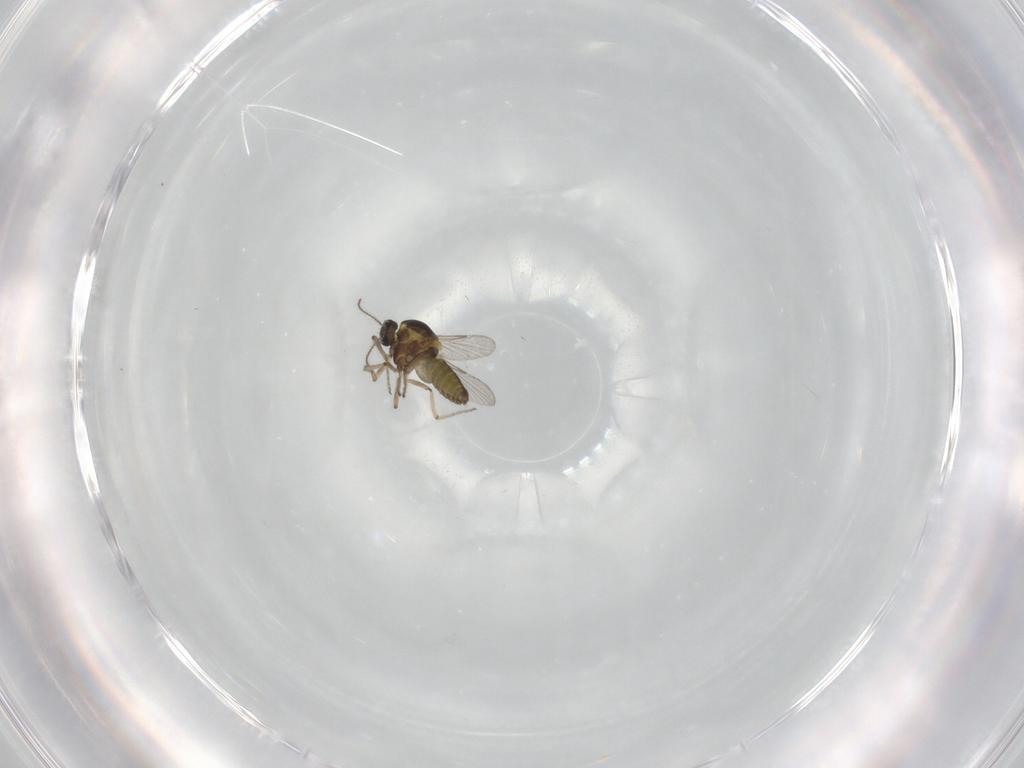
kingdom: Animalia
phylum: Arthropoda
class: Insecta
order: Diptera
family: Ceratopogonidae
